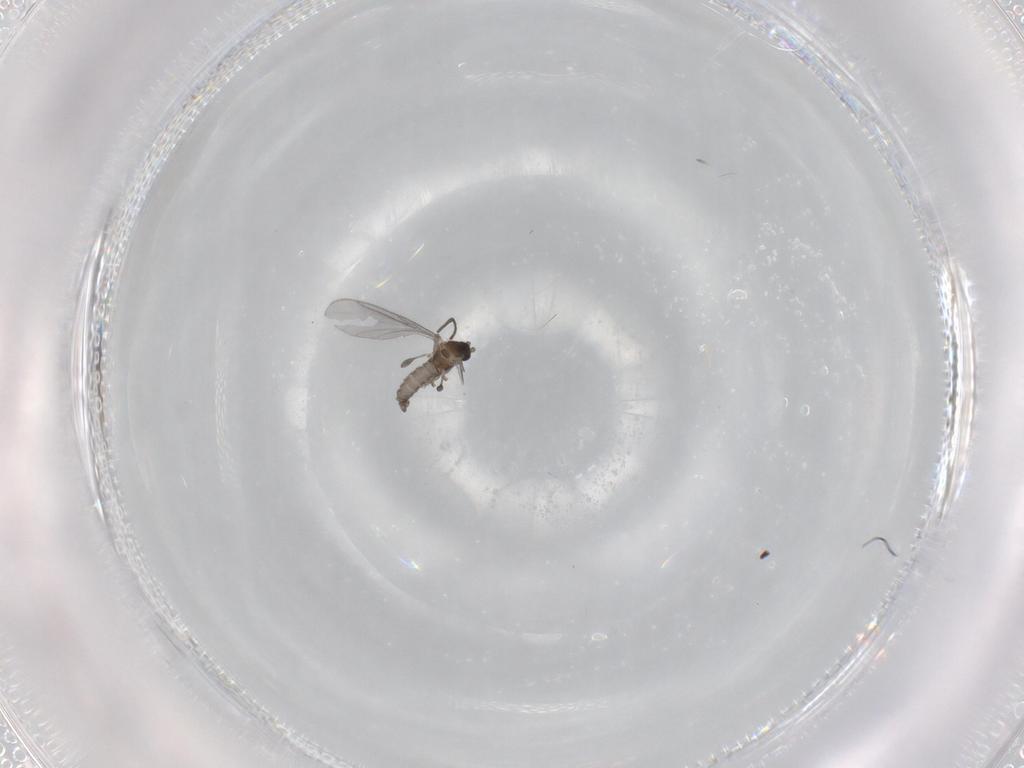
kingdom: Animalia
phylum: Arthropoda
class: Insecta
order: Diptera
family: Sciaridae
